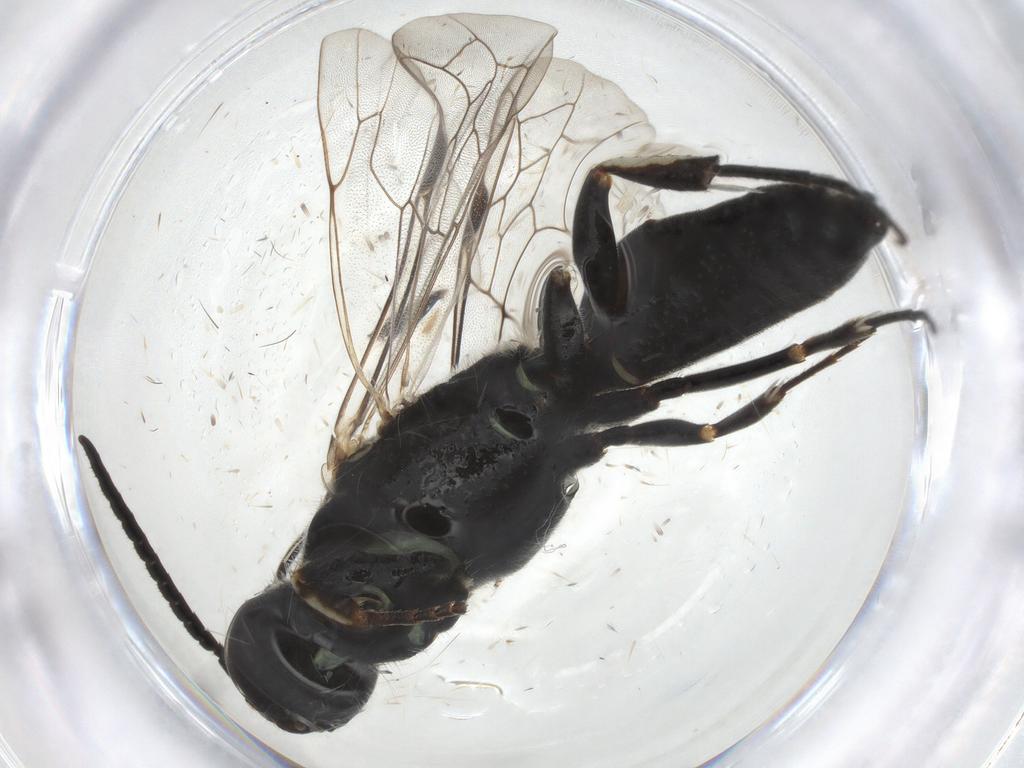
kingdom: Animalia
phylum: Arthropoda
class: Insecta
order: Hymenoptera
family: Thynnidae
